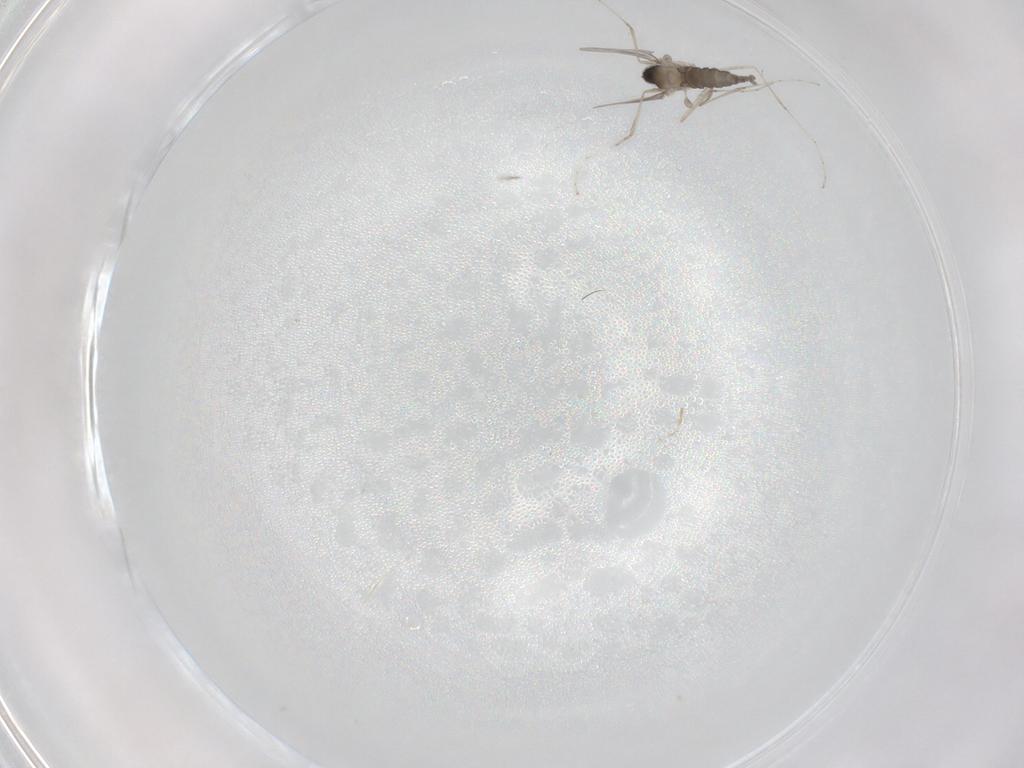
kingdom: Animalia
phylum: Arthropoda
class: Insecta
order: Diptera
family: Cecidomyiidae
